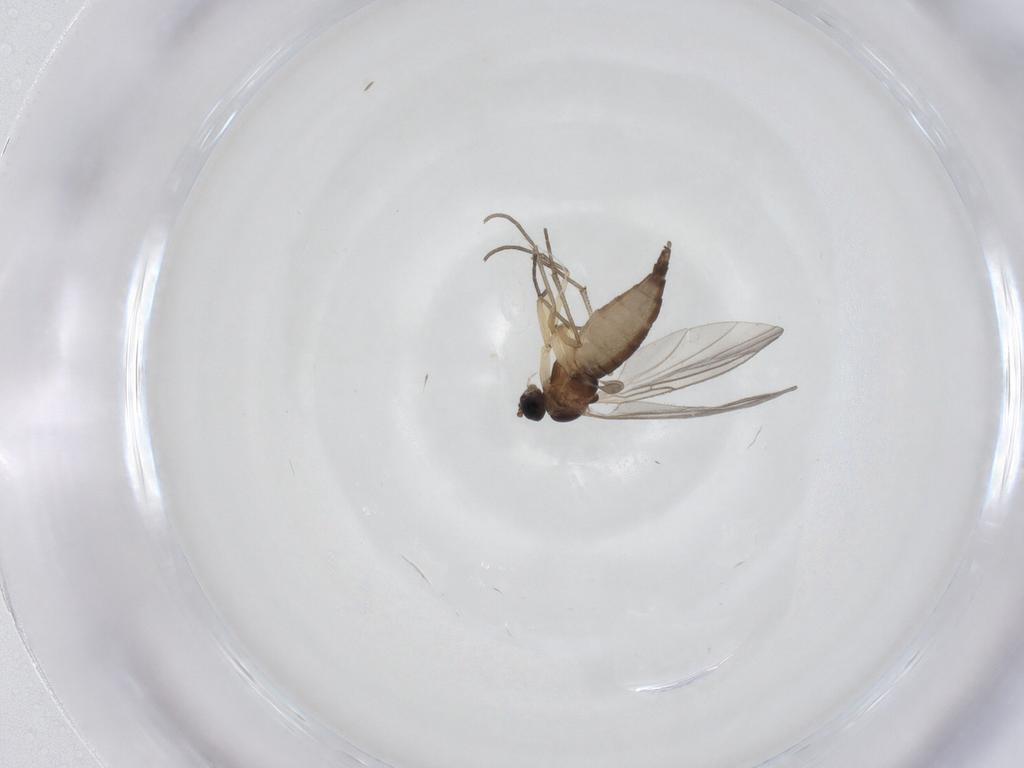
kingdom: Animalia
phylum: Arthropoda
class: Insecta
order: Diptera
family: Sciaridae
